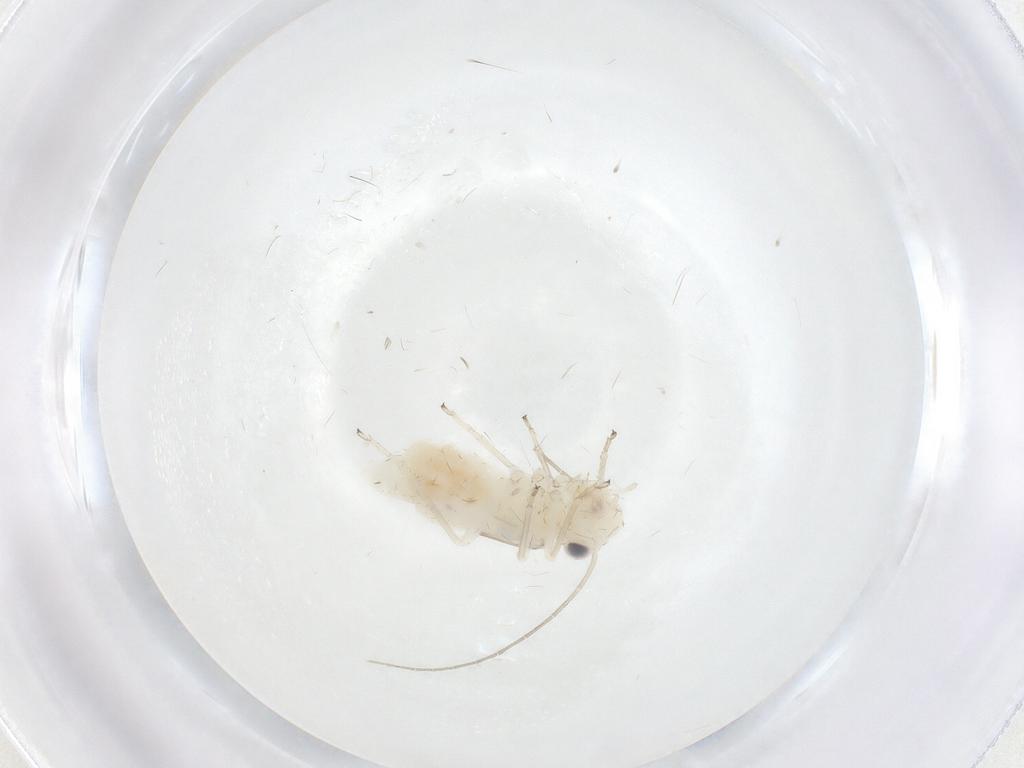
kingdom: Animalia
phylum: Arthropoda
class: Insecta
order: Psocodea
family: Caeciliusidae
